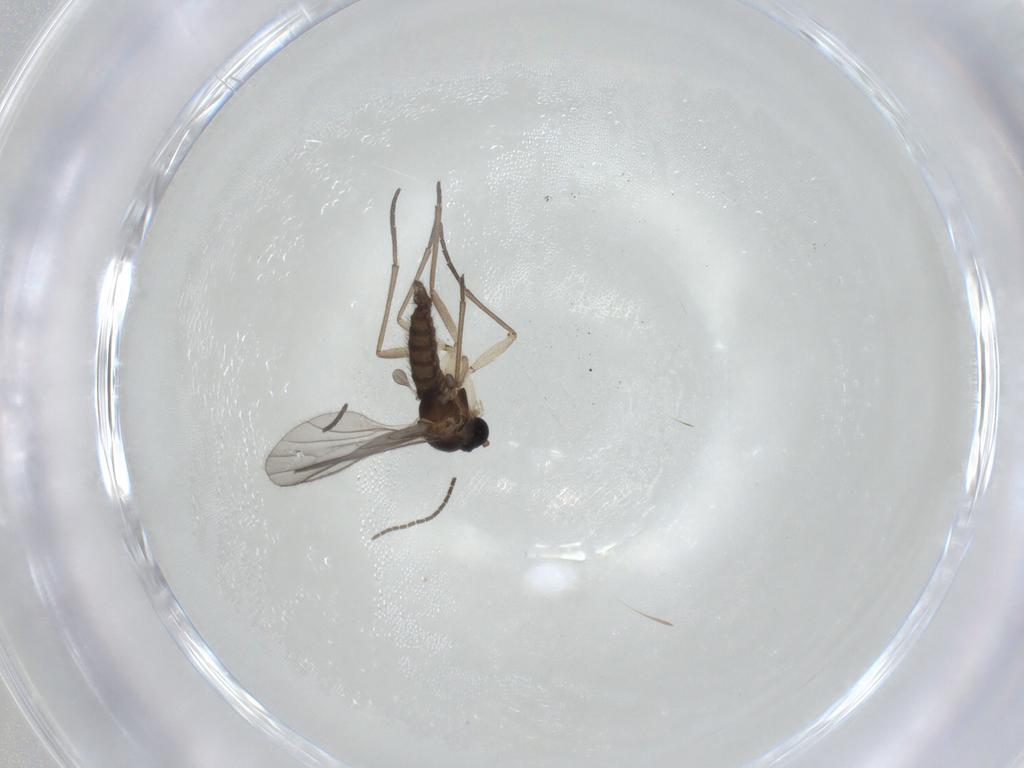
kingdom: Animalia
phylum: Arthropoda
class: Insecta
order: Diptera
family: Sciaridae
